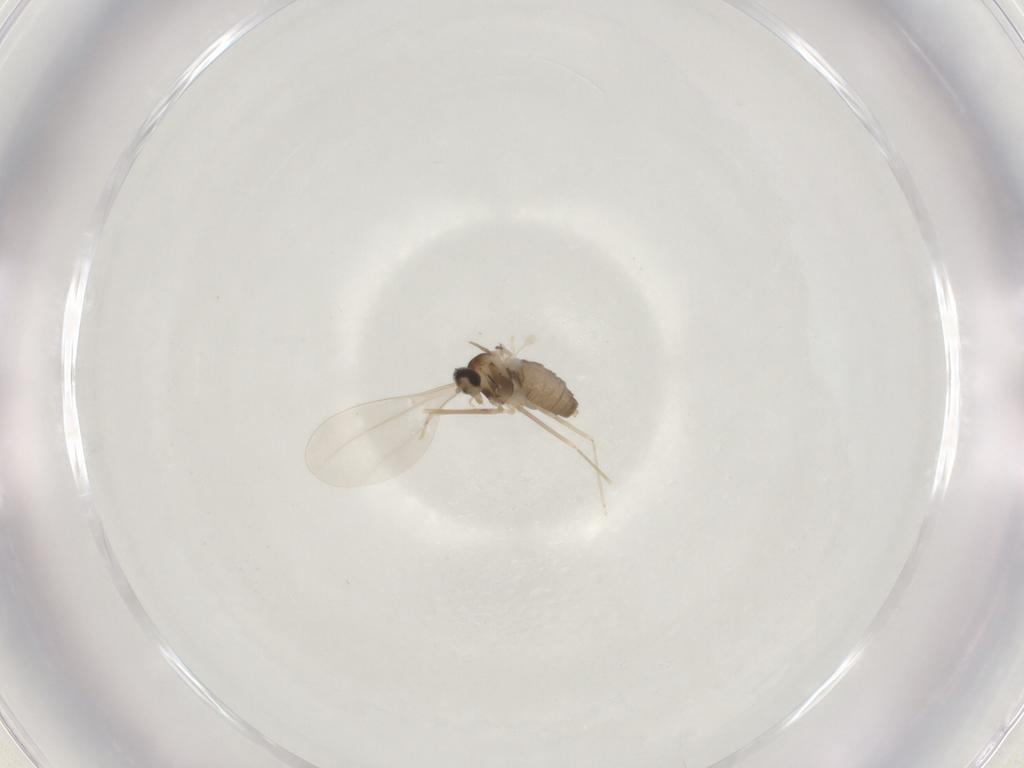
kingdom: Animalia
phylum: Arthropoda
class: Insecta
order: Diptera
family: Cecidomyiidae
